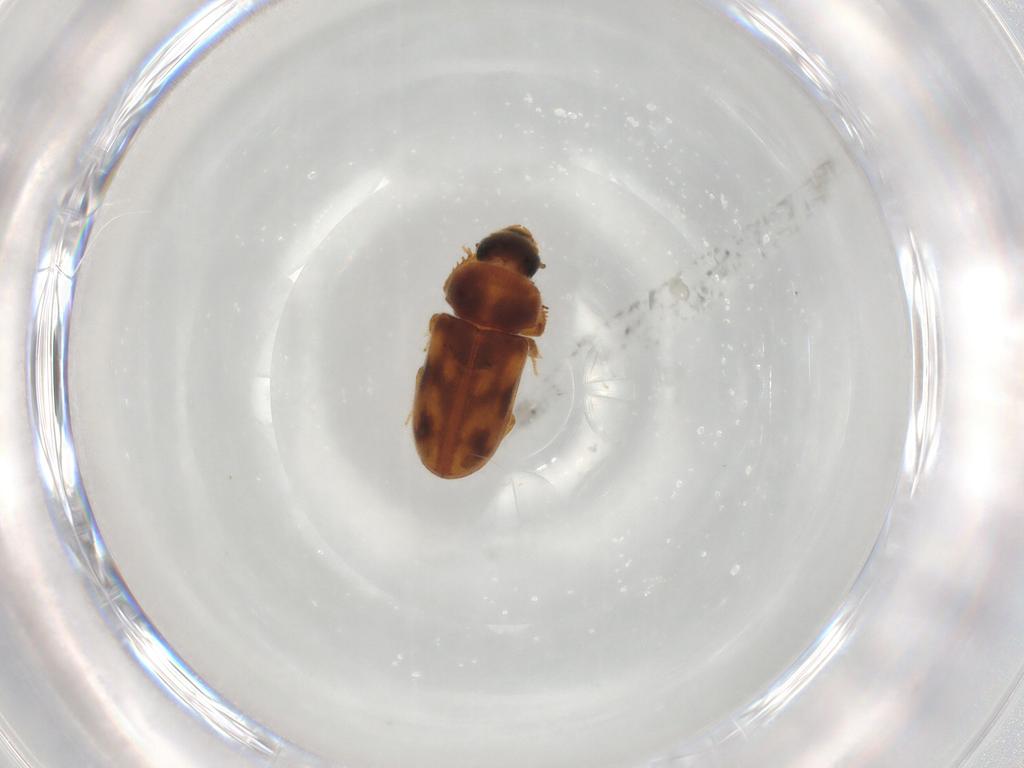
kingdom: Animalia
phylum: Arthropoda
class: Insecta
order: Coleoptera
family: Heteroceridae
